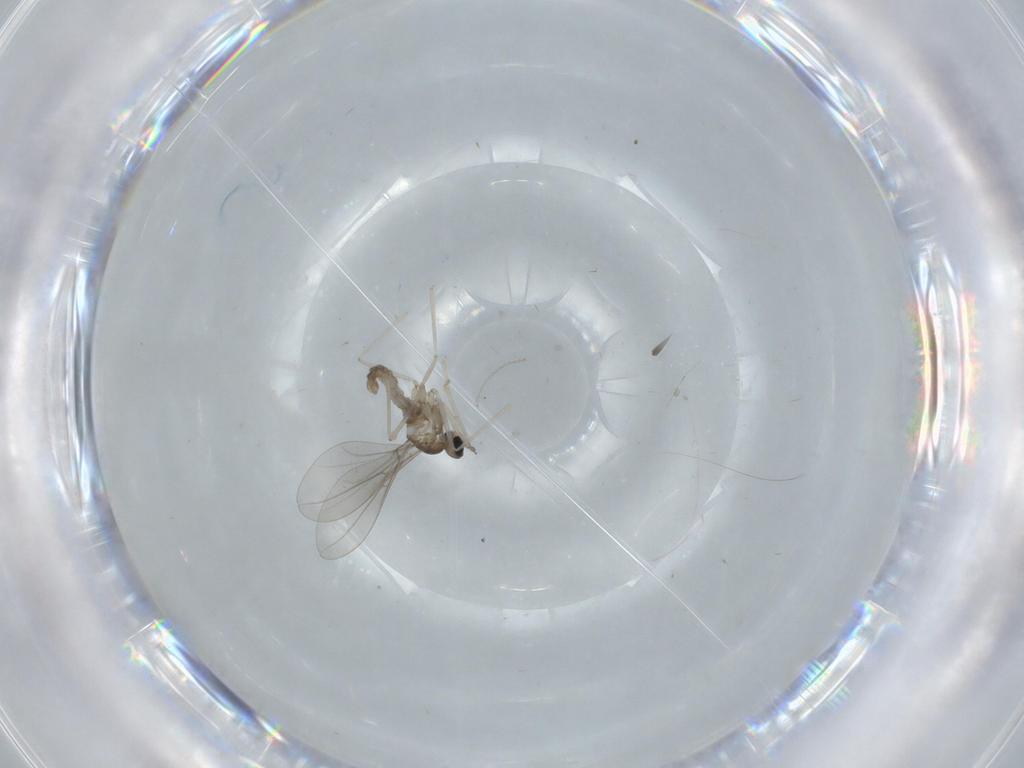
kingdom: Animalia
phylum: Arthropoda
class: Insecta
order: Diptera
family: Cecidomyiidae
